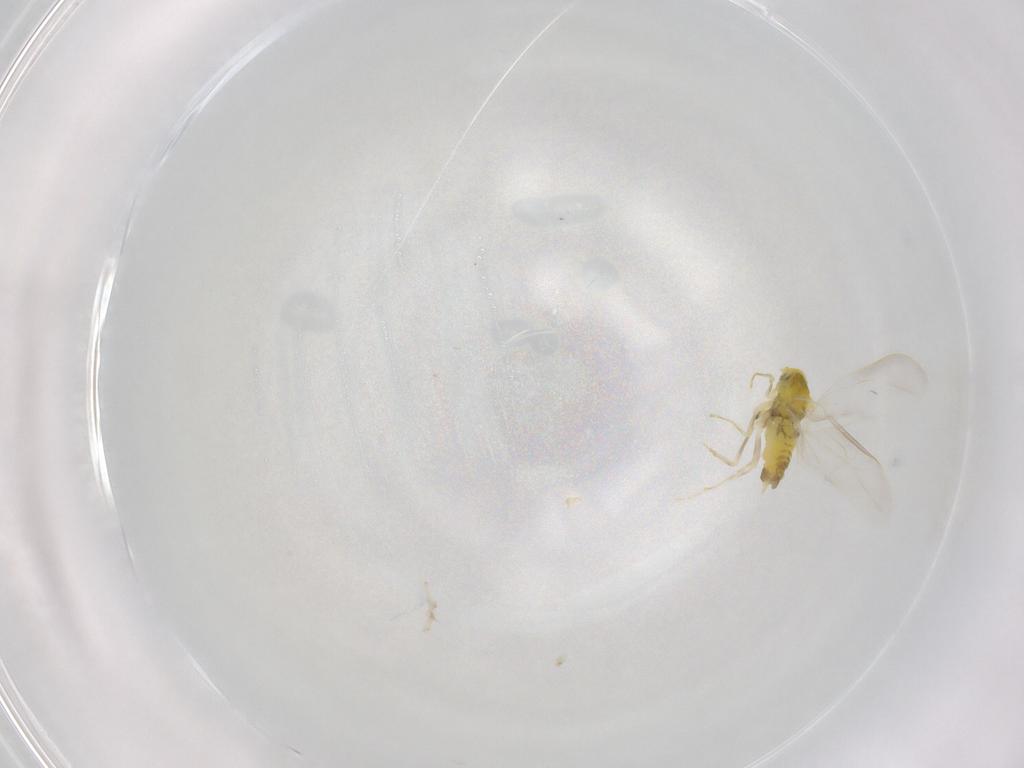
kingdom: Animalia
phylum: Arthropoda
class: Insecta
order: Hemiptera
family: Aleyrodidae
